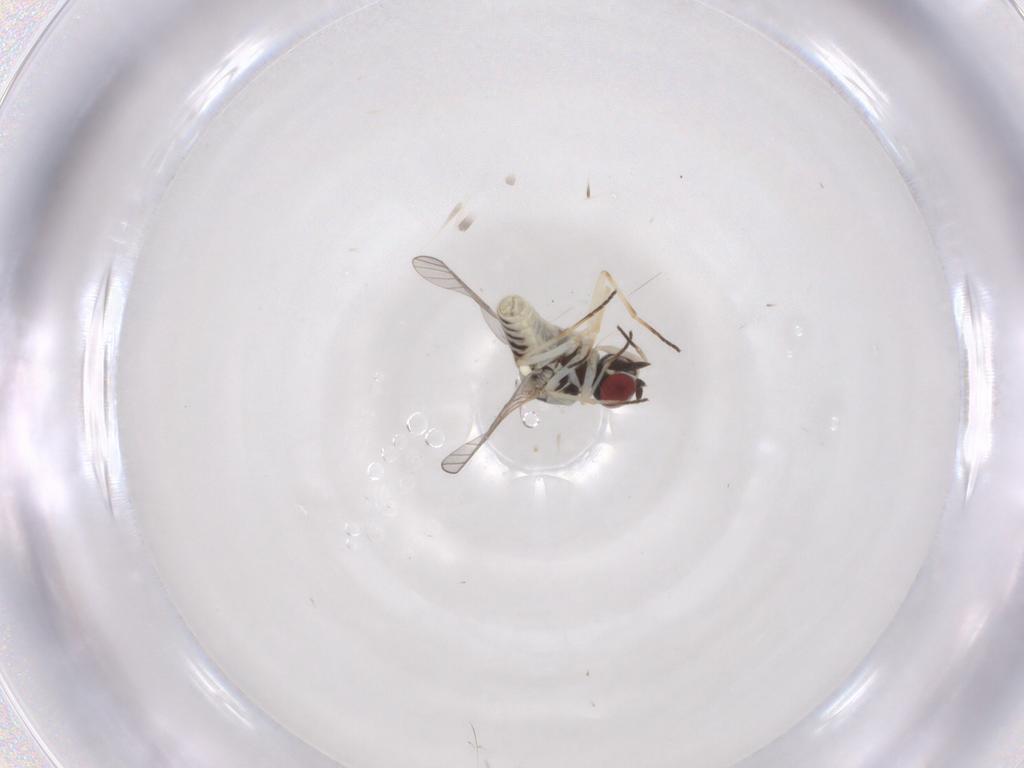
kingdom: Animalia
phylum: Arthropoda
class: Insecta
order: Diptera
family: Mythicomyiidae
